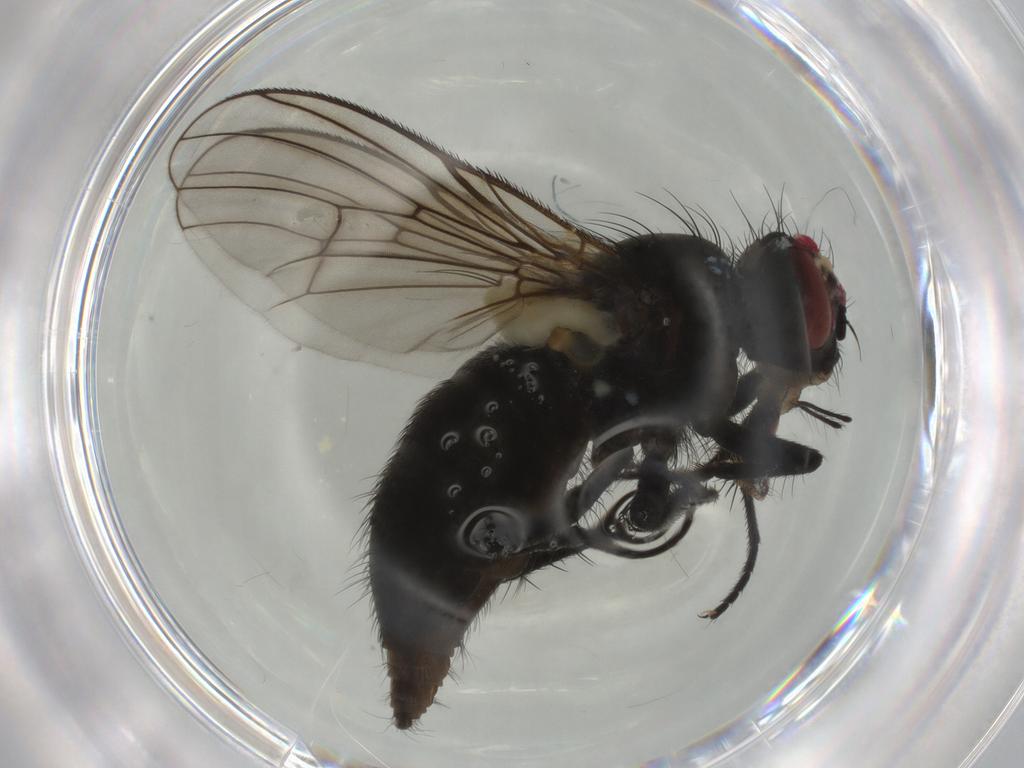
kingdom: Animalia
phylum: Arthropoda
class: Insecta
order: Diptera
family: Muscidae
